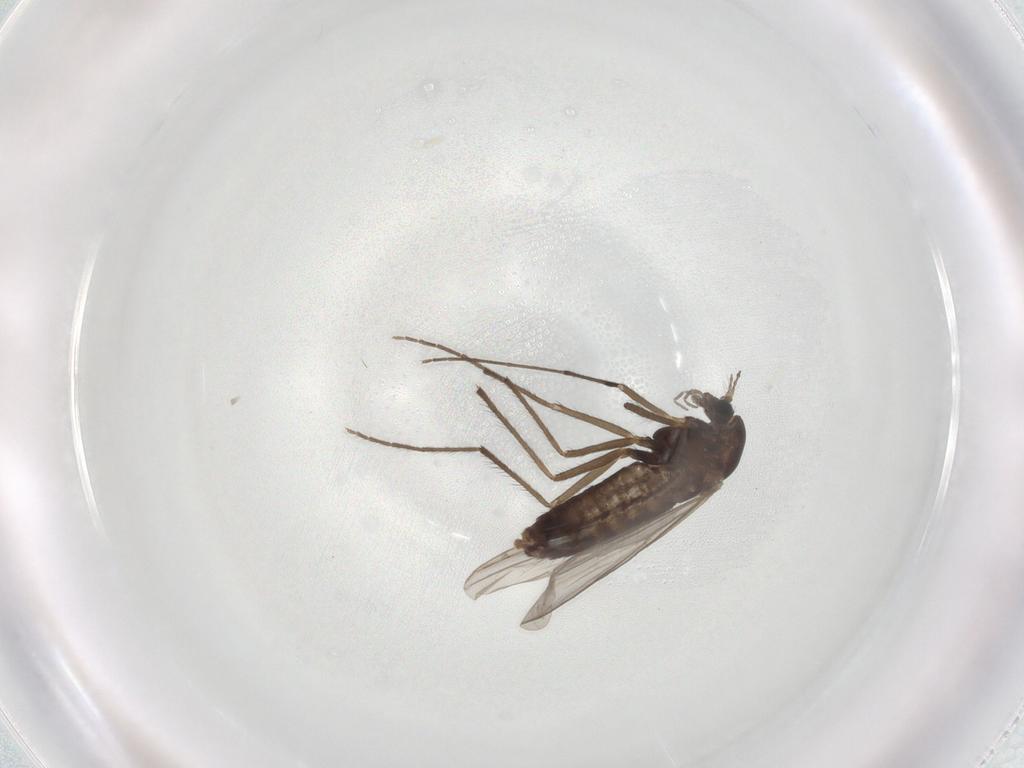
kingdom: Animalia
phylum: Arthropoda
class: Insecta
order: Diptera
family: Chironomidae
